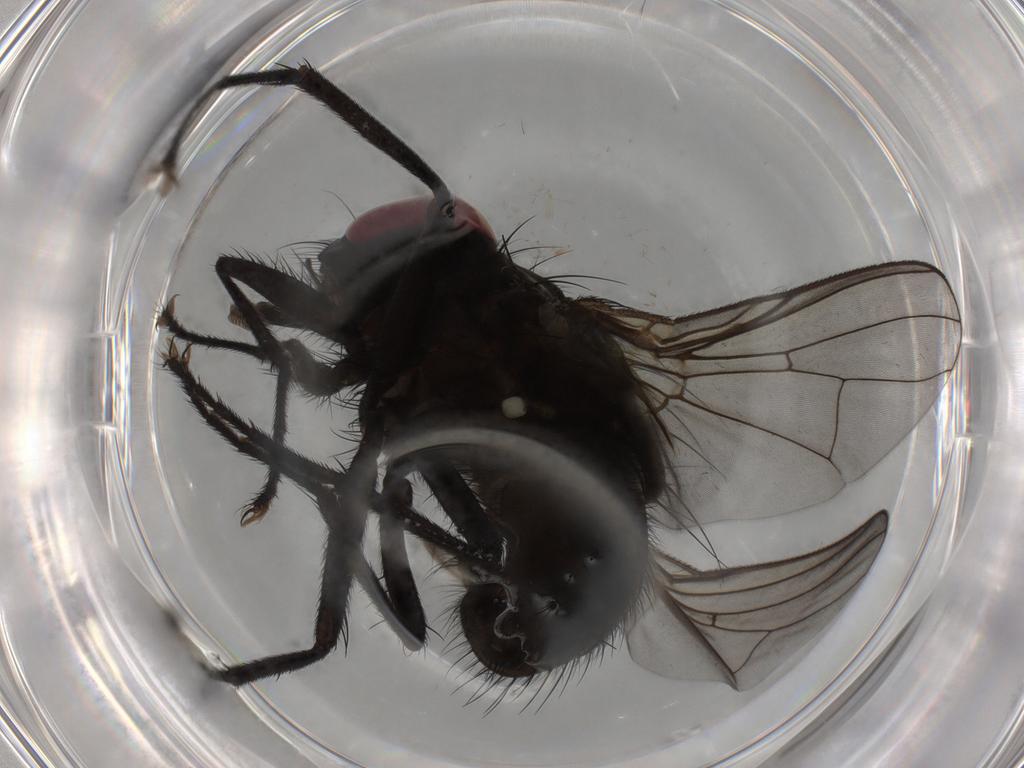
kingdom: Animalia
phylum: Arthropoda
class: Insecta
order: Diptera
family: Muscidae
